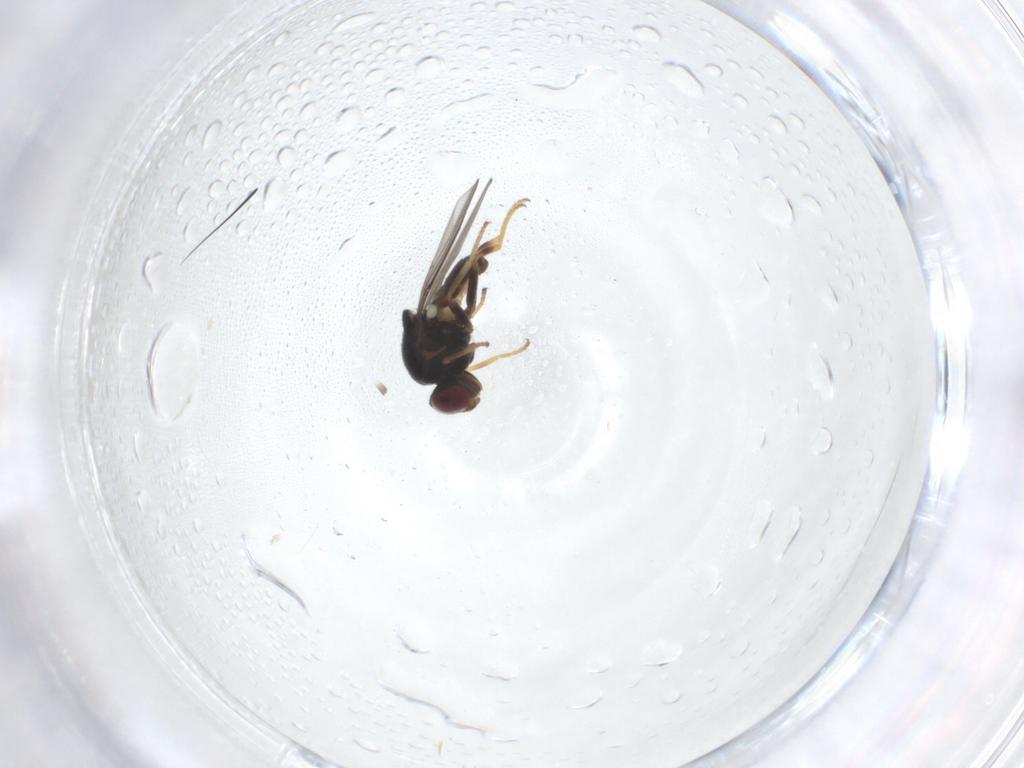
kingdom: Animalia
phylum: Arthropoda
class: Insecta
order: Diptera
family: Chloropidae
